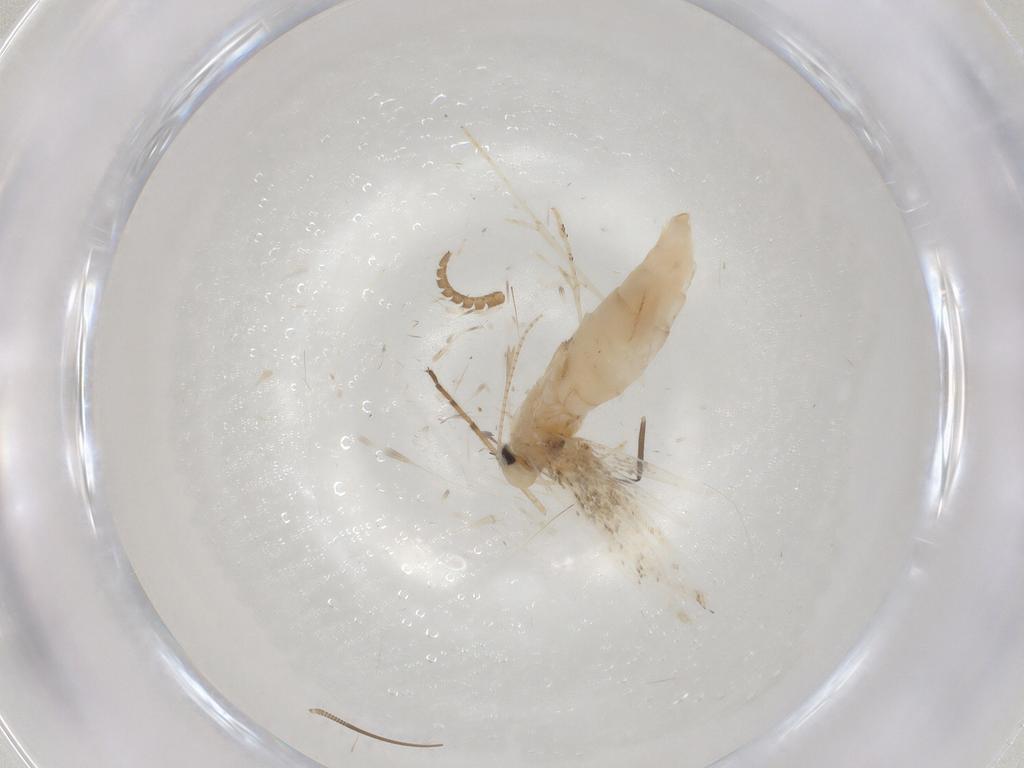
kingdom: Animalia
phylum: Arthropoda
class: Insecta
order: Lepidoptera
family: Gracillariidae
